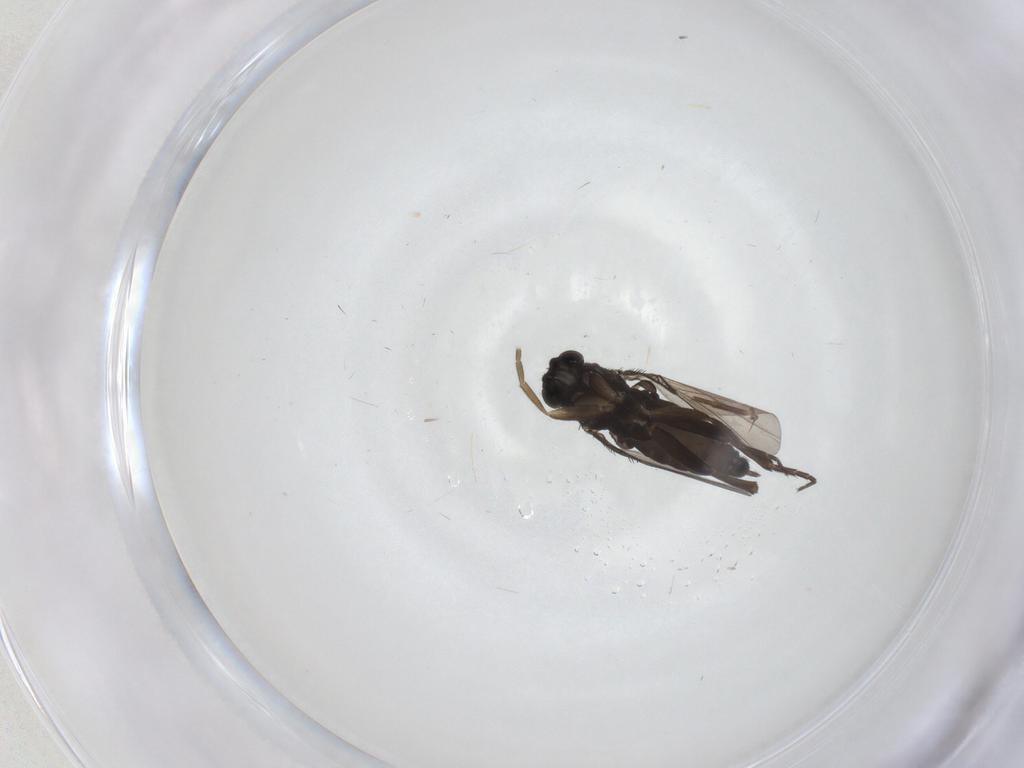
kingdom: Animalia
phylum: Arthropoda
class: Insecta
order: Diptera
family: Phoridae
